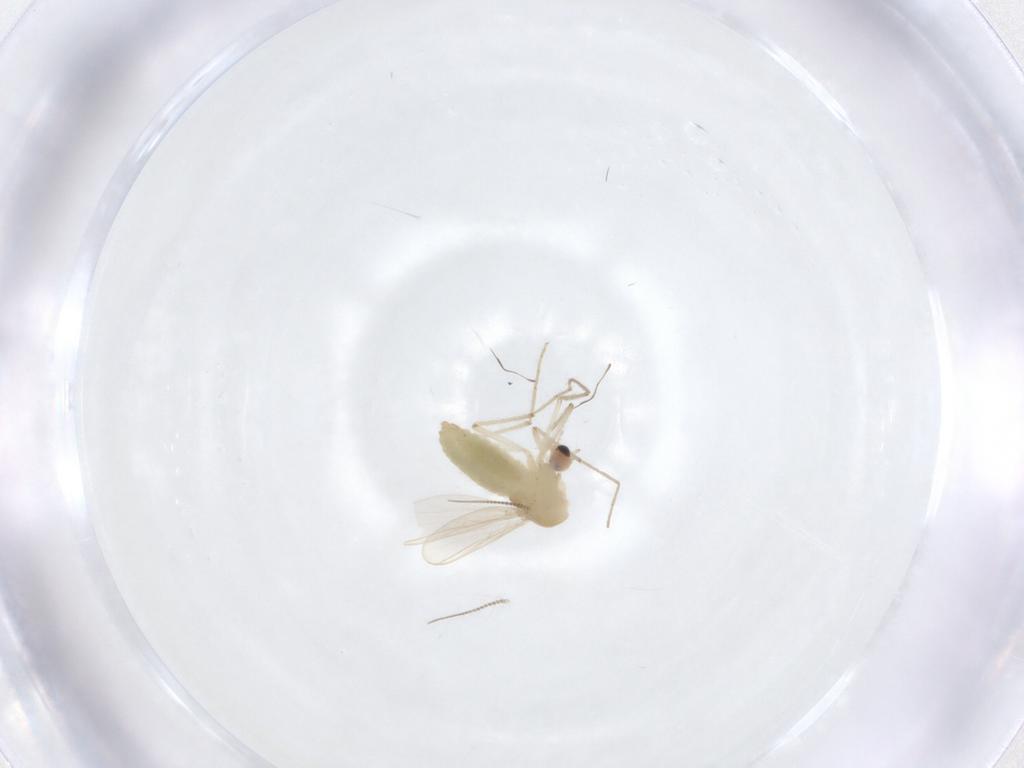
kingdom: Animalia
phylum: Arthropoda
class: Insecta
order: Diptera
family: Chironomidae
